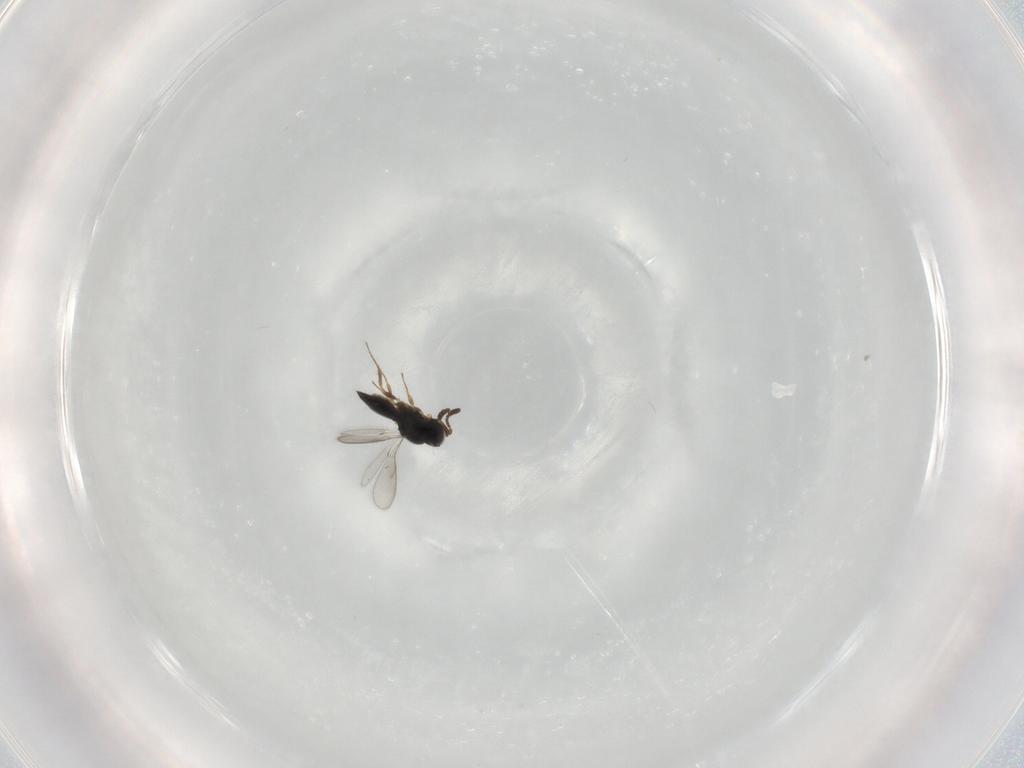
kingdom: Animalia
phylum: Arthropoda
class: Insecta
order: Hymenoptera
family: Scelionidae
